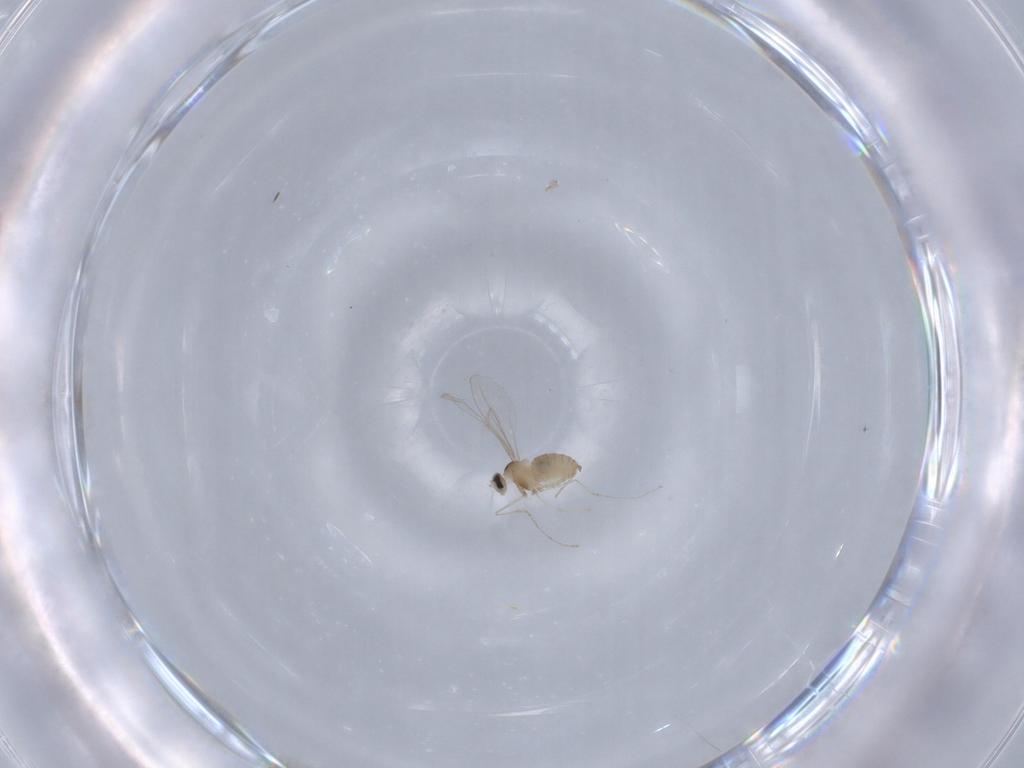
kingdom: Animalia
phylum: Arthropoda
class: Insecta
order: Diptera
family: Cecidomyiidae
